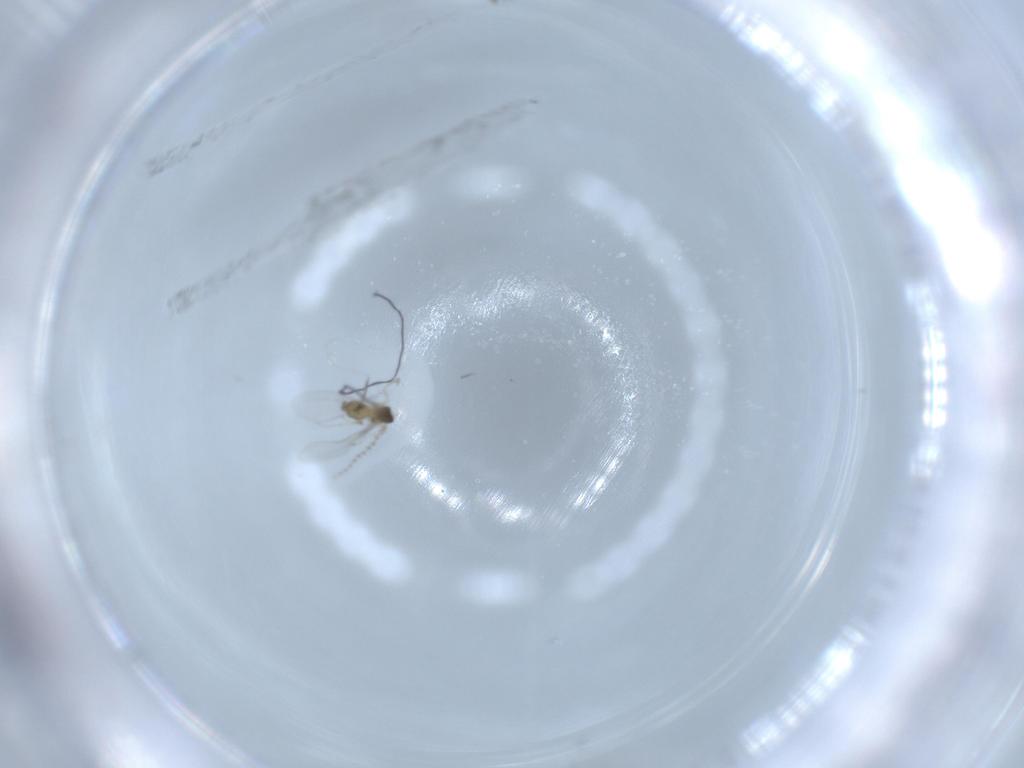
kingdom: Animalia
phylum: Arthropoda
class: Insecta
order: Diptera
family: Cecidomyiidae
